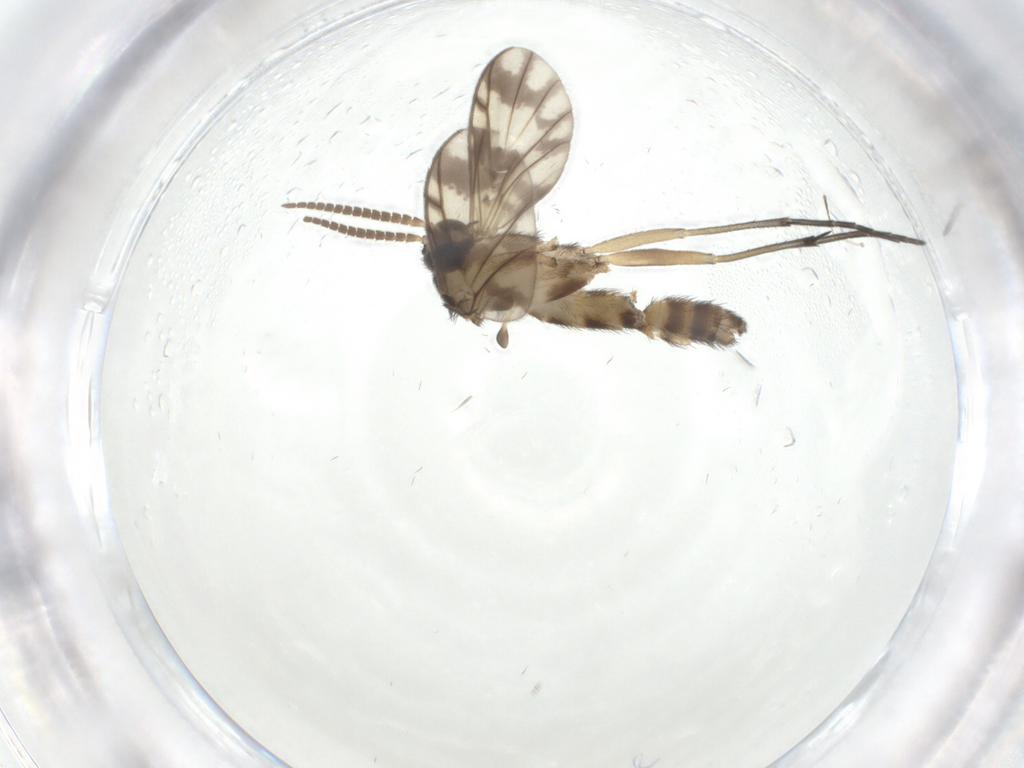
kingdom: Animalia
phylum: Arthropoda
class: Insecta
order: Diptera
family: Keroplatidae
